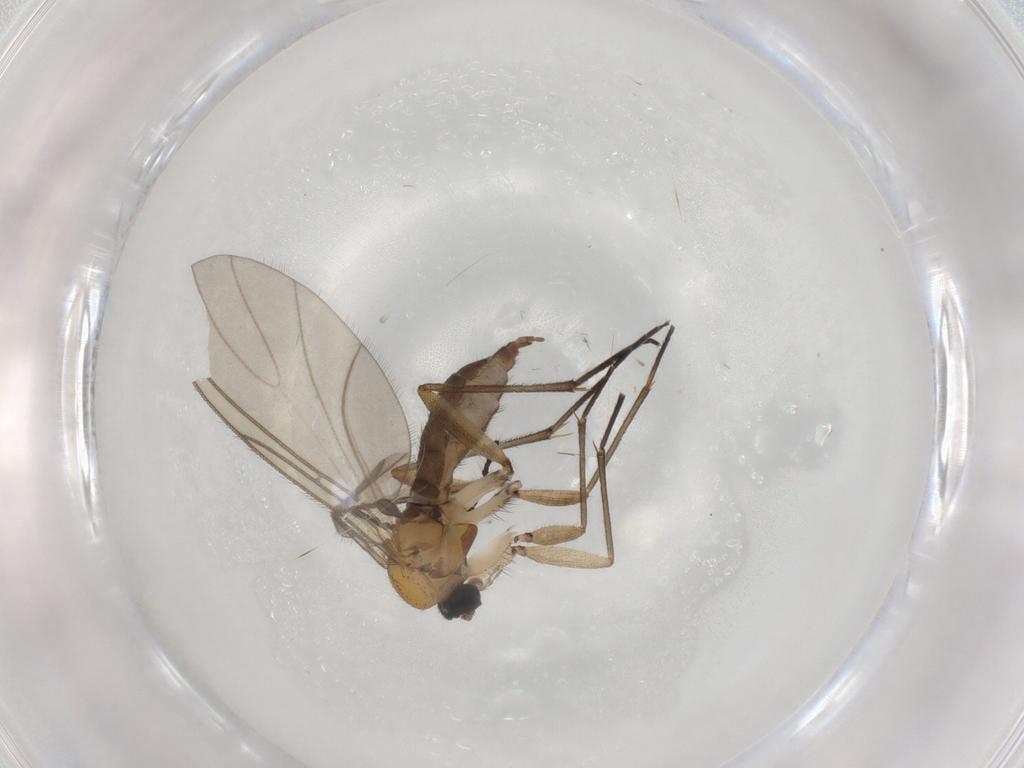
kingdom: Animalia
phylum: Arthropoda
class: Insecta
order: Diptera
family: Sciaridae
